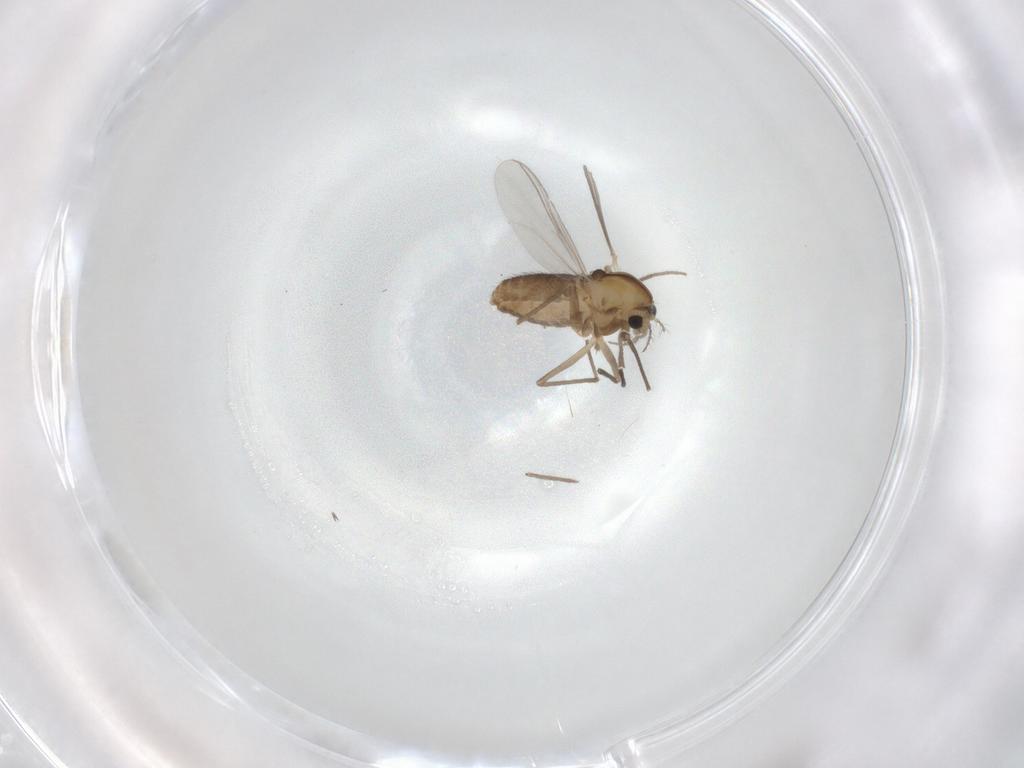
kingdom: Animalia
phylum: Arthropoda
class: Insecta
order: Diptera
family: Chironomidae
